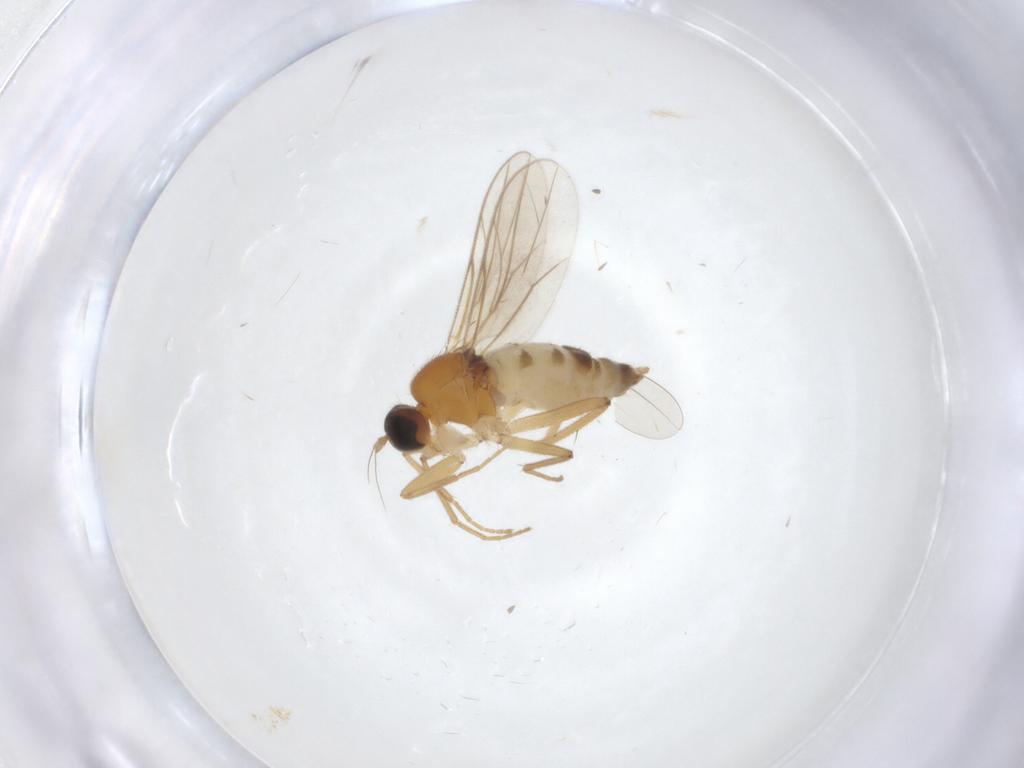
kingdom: Animalia
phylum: Arthropoda
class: Insecta
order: Diptera
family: Hybotidae
